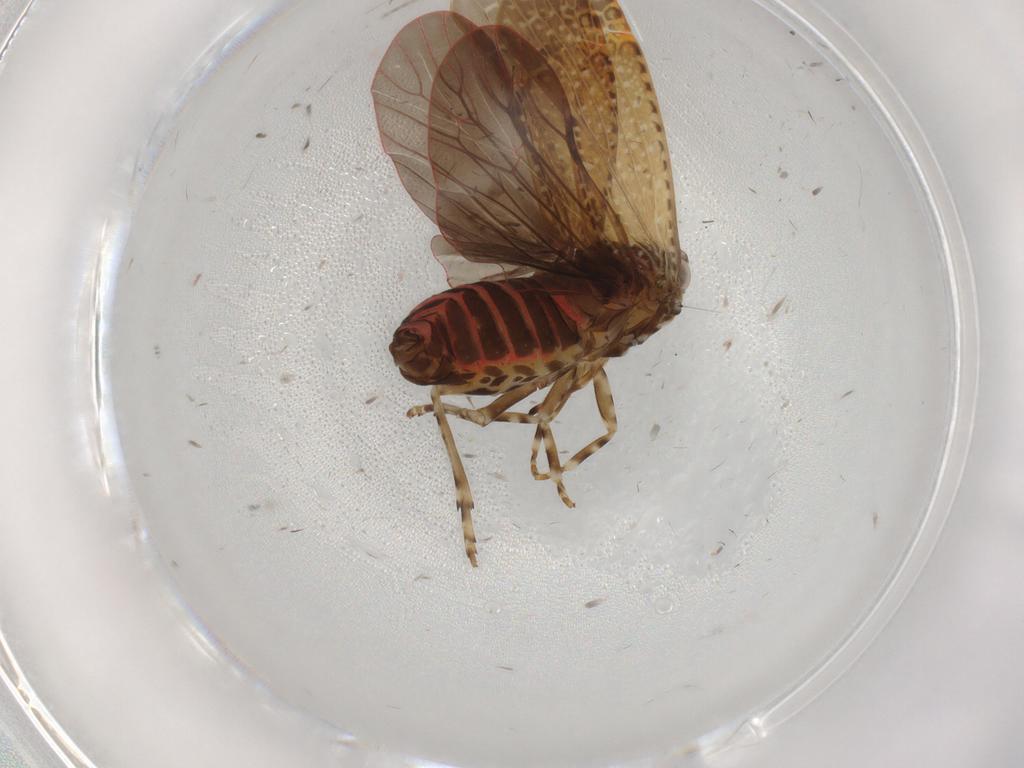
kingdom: Animalia
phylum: Arthropoda
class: Insecta
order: Hemiptera
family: Achilidae
